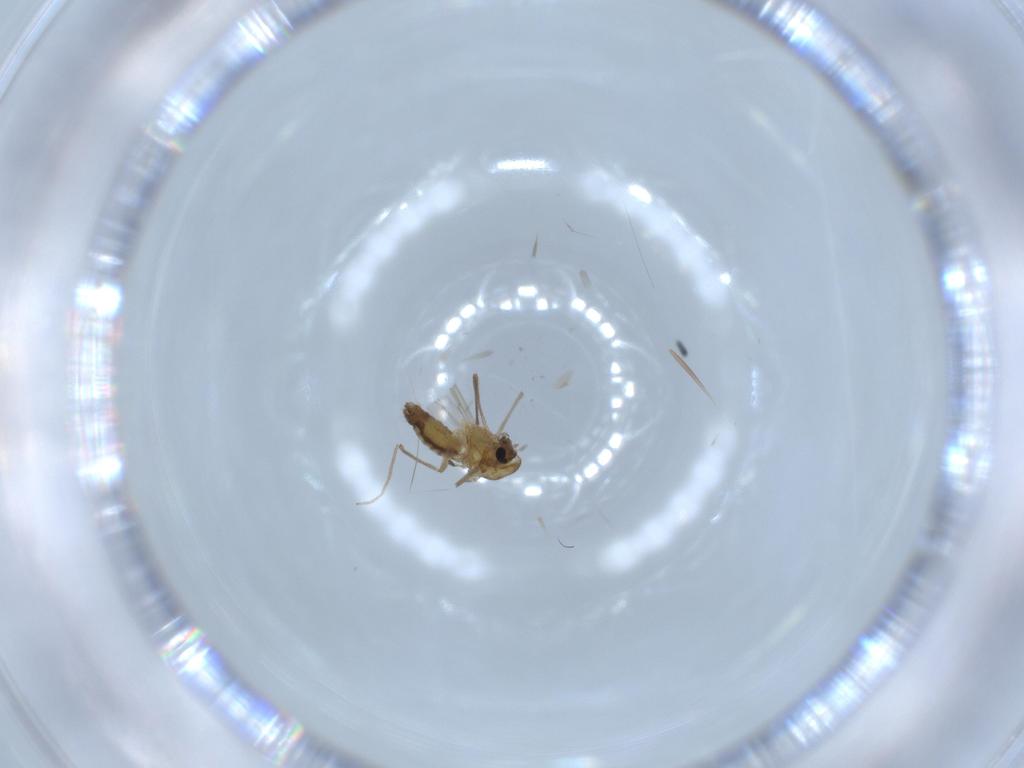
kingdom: Animalia
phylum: Arthropoda
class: Insecta
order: Diptera
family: Chironomidae
